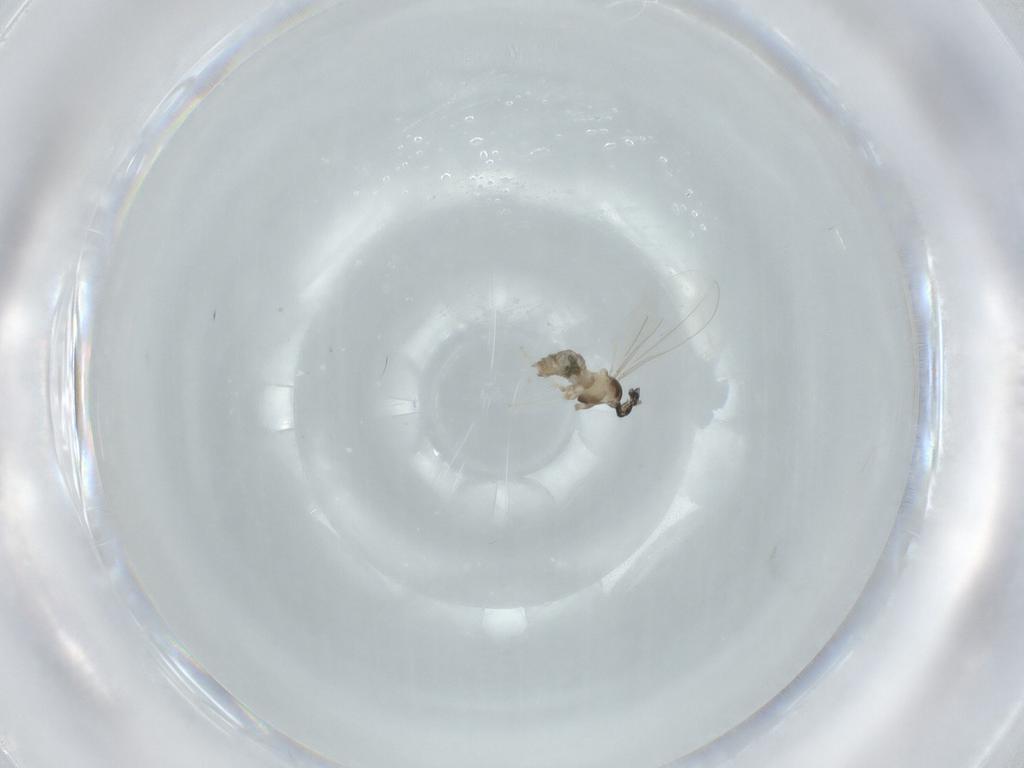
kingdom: Animalia
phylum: Arthropoda
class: Insecta
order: Diptera
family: Cecidomyiidae
